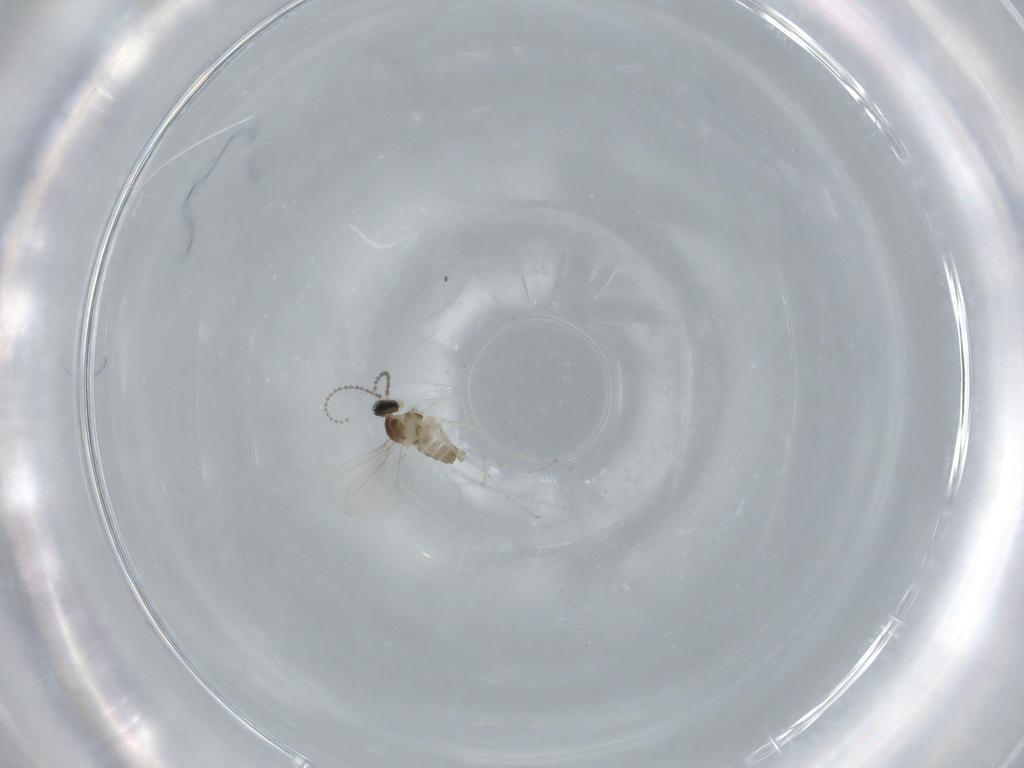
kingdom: Animalia
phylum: Arthropoda
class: Insecta
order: Diptera
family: Cecidomyiidae
